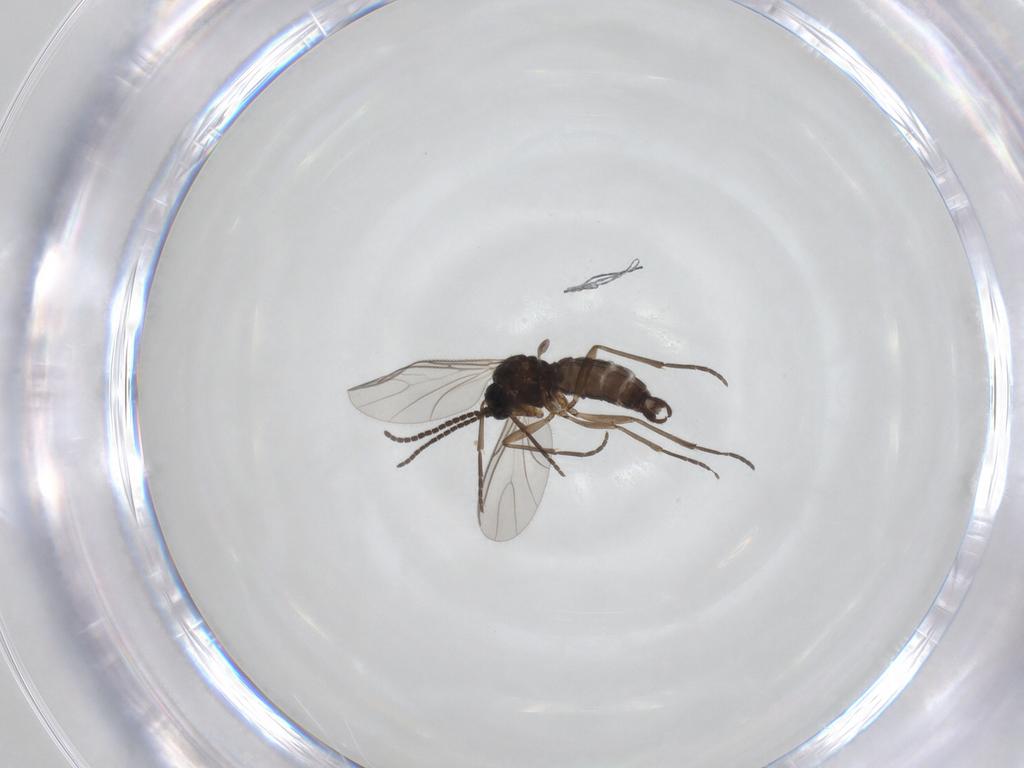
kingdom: Animalia
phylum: Arthropoda
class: Insecta
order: Diptera
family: Sciaridae
